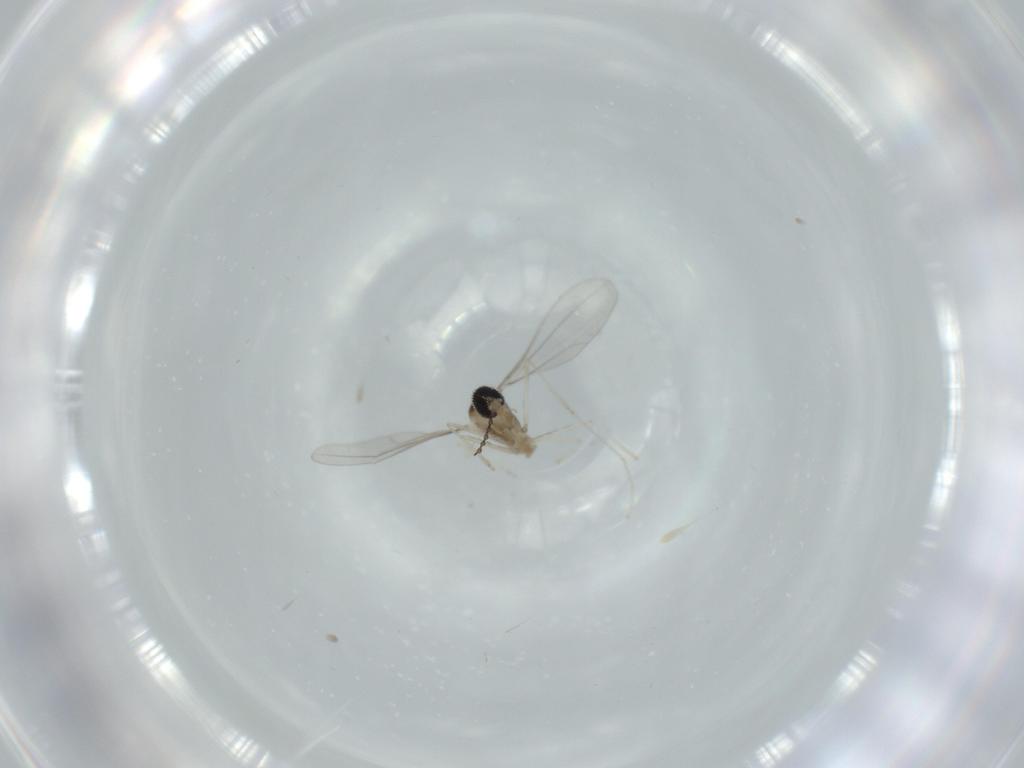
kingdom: Animalia
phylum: Arthropoda
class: Insecta
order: Diptera
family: Cecidomyiidae
